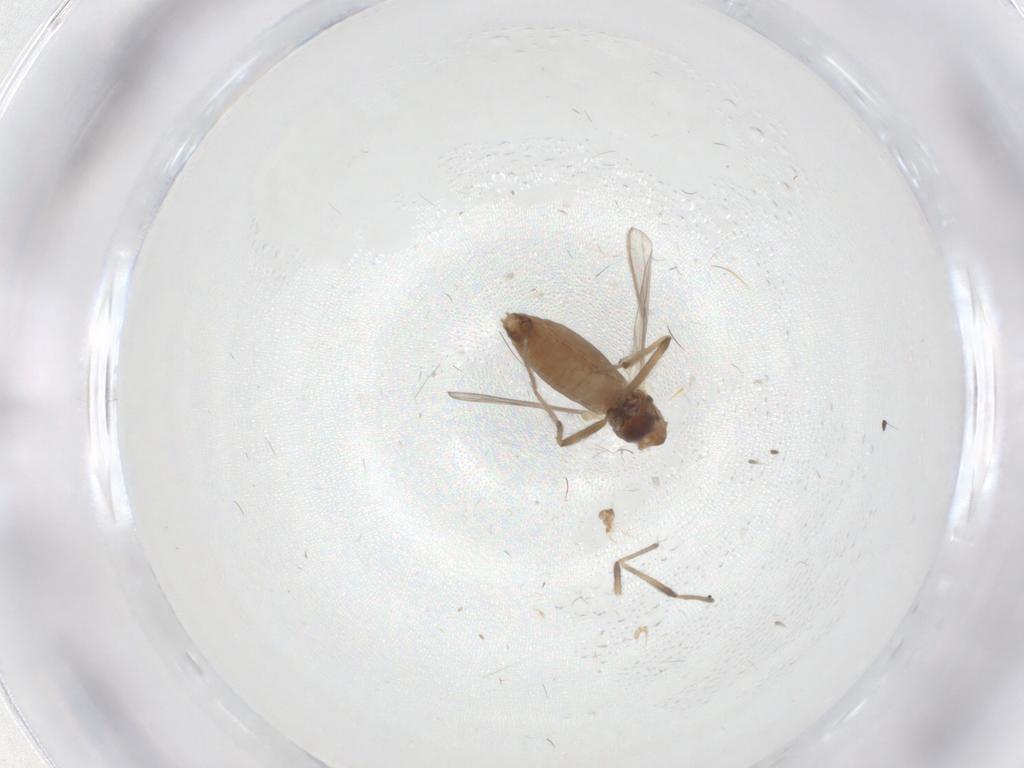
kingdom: Animalia
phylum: Arthropoda
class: Insecta
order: Diptera
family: Chironomidae
